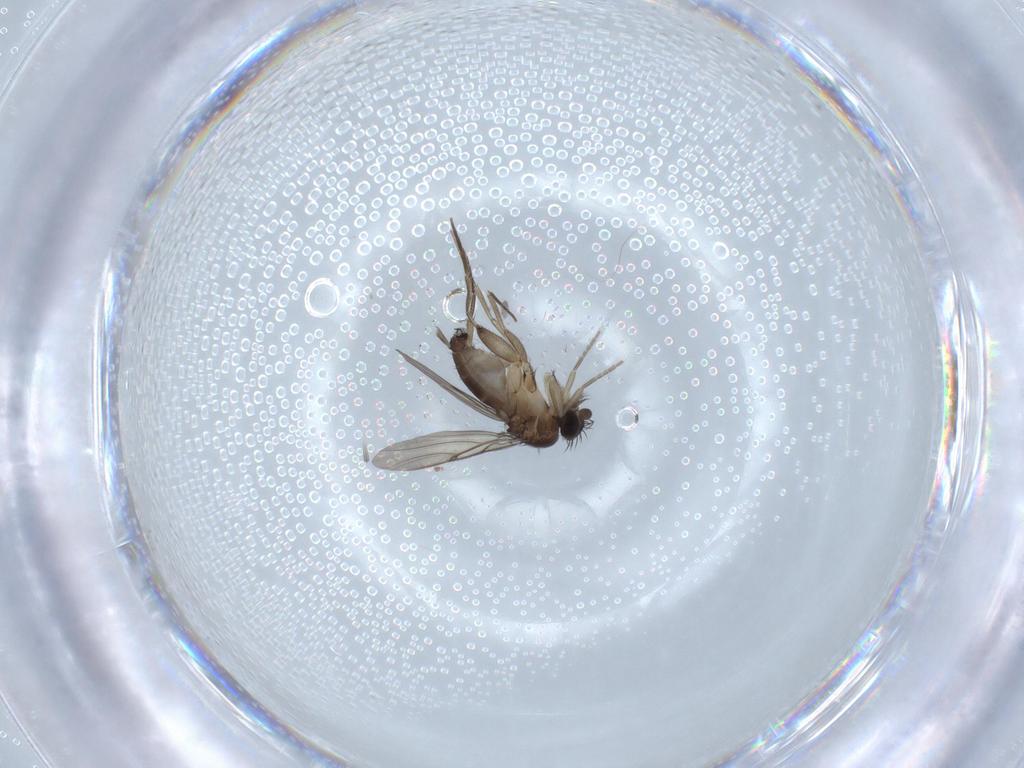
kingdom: Animalia
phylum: Arthropoda
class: Insecta
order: Diptera
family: Phoridae
